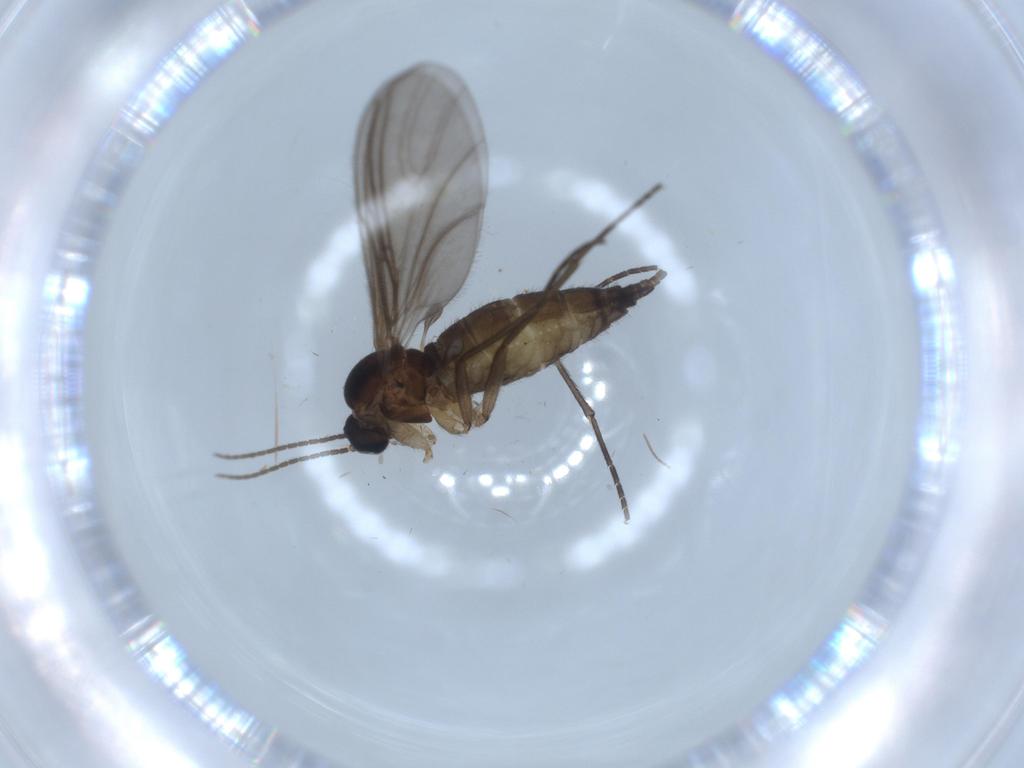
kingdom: Animalia
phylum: Arthropoda
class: Insecta
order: Diptera
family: Sciaridae
